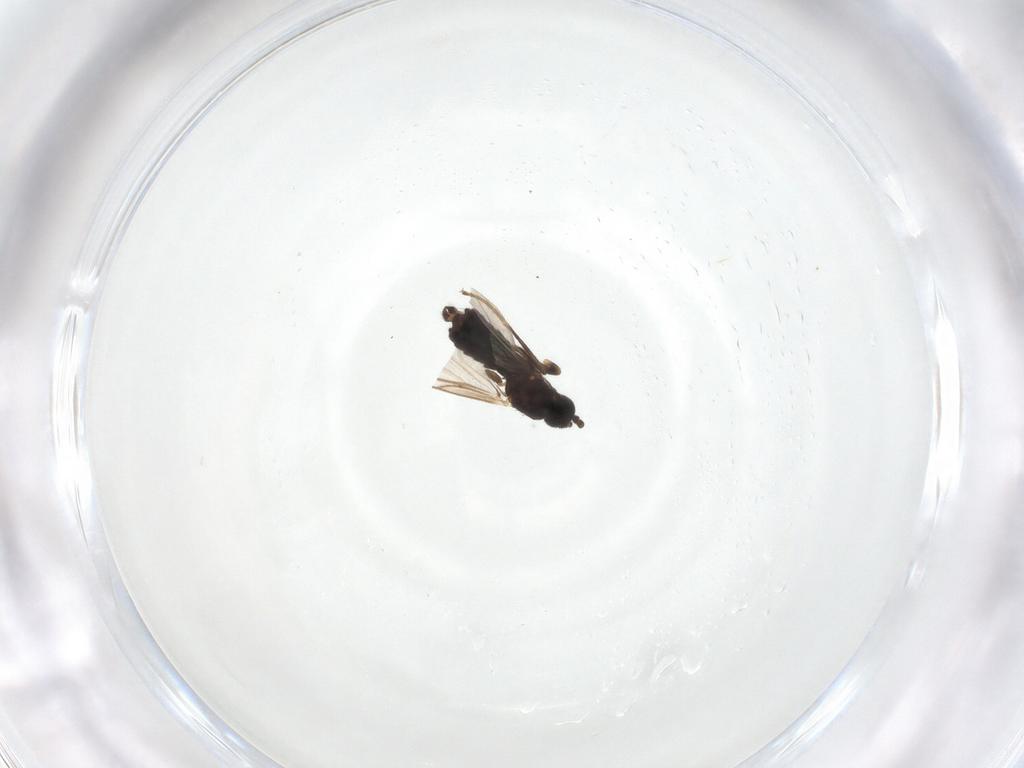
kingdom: Animalia
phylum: Arthropoda
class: Insecta
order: Diptera
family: Scatopsidae
